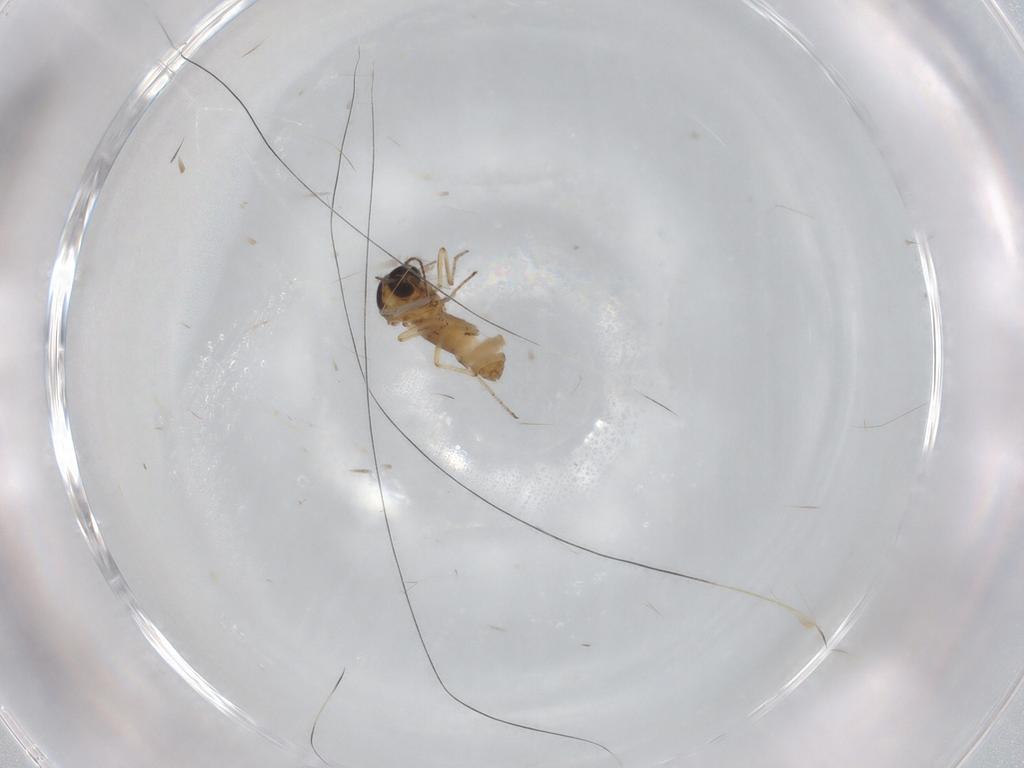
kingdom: Animalia
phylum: Arthropoda
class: Insecta
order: Diptera
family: Ceratopogonidae
